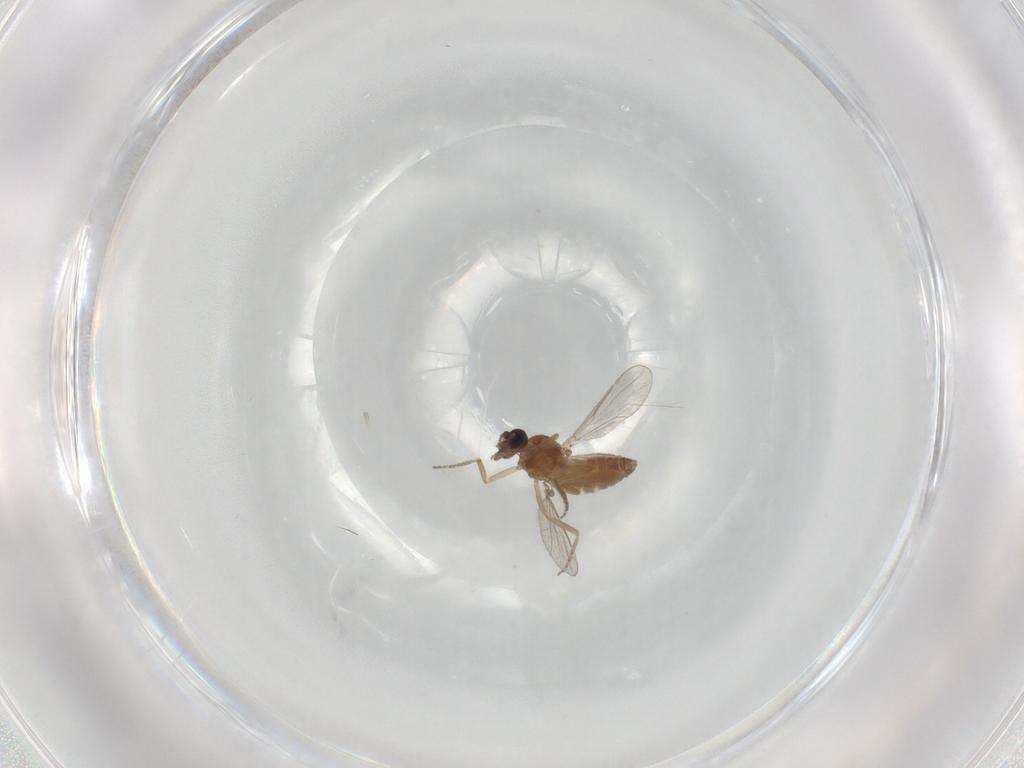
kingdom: Animalia
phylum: Arthropoda
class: Insecta
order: Diptera
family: Ceratopogonidae
